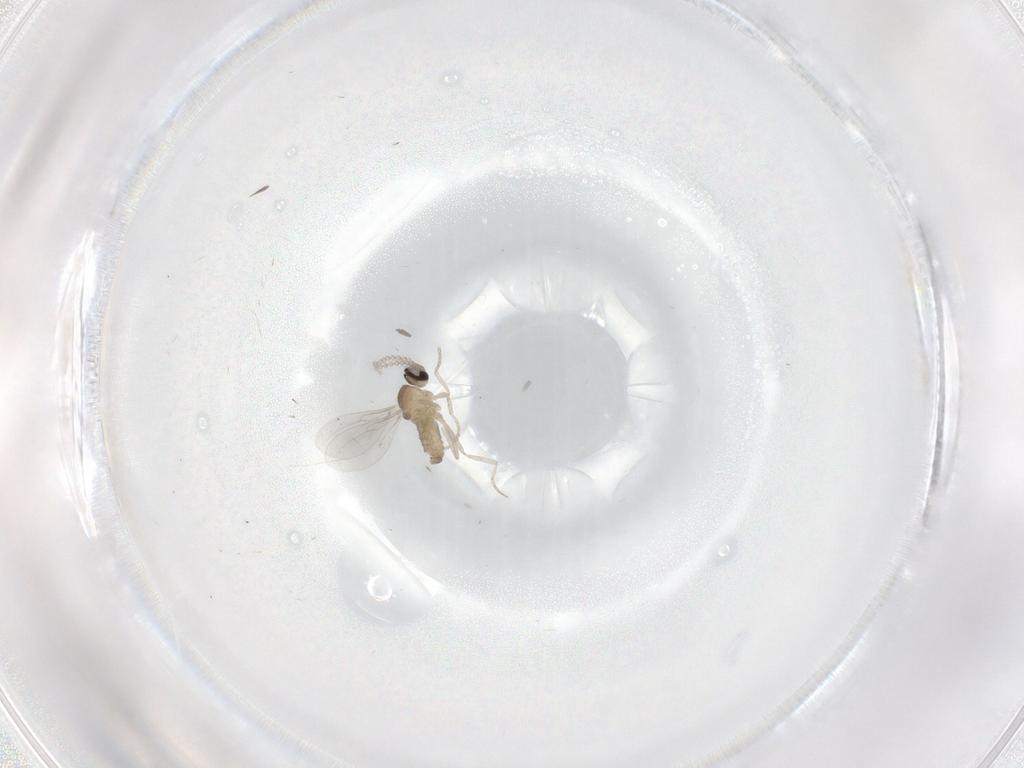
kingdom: Animalia
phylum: Arthropoda
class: Insecta
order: Diptera
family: Cecidomyiidae
